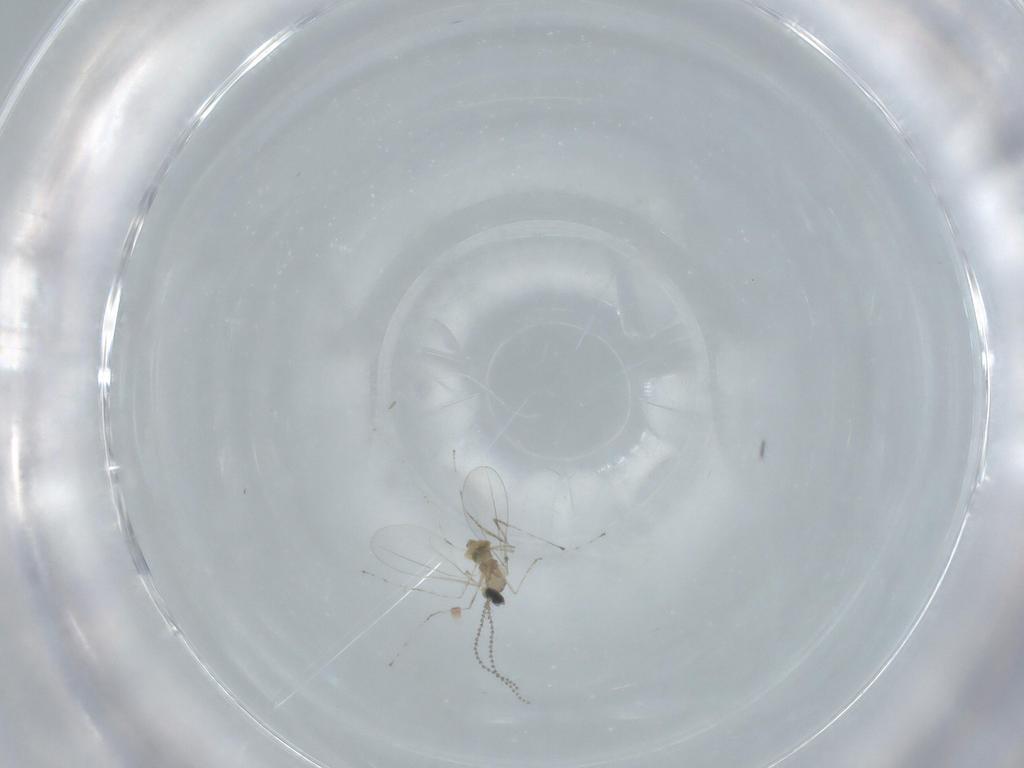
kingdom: Animalia
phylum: Arthropoda
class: Insecta
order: Diptera
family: Cecidomyiidae
